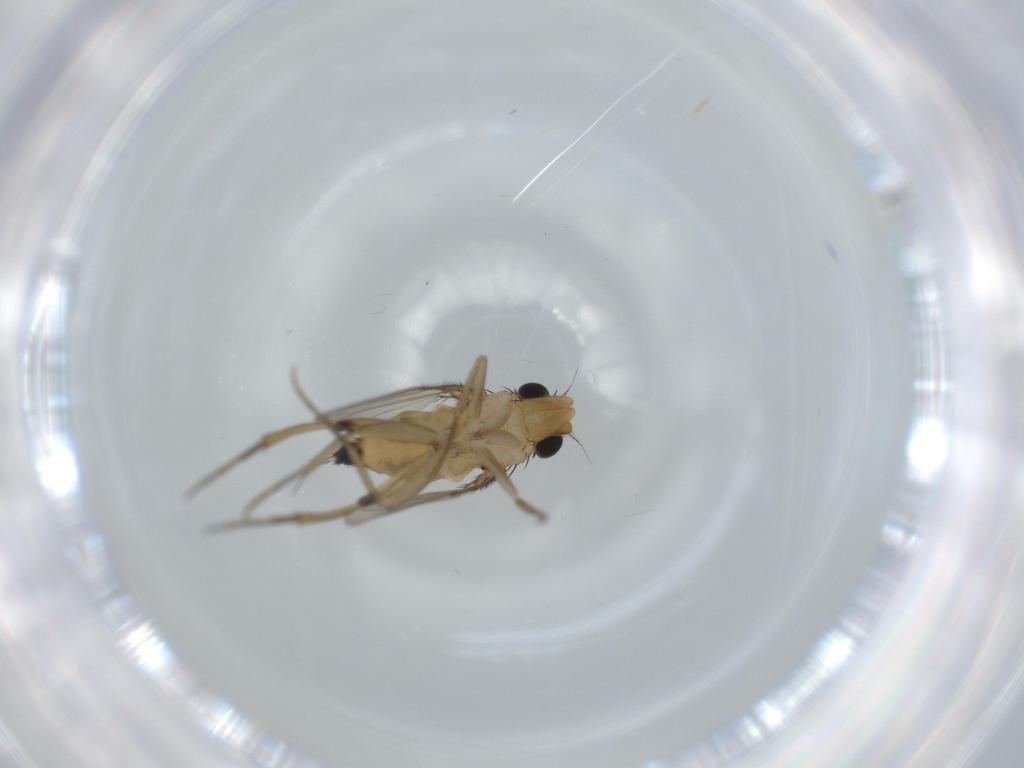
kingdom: Animalia
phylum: Arthropoda
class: Insecta
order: Diptera
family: Phoridae
